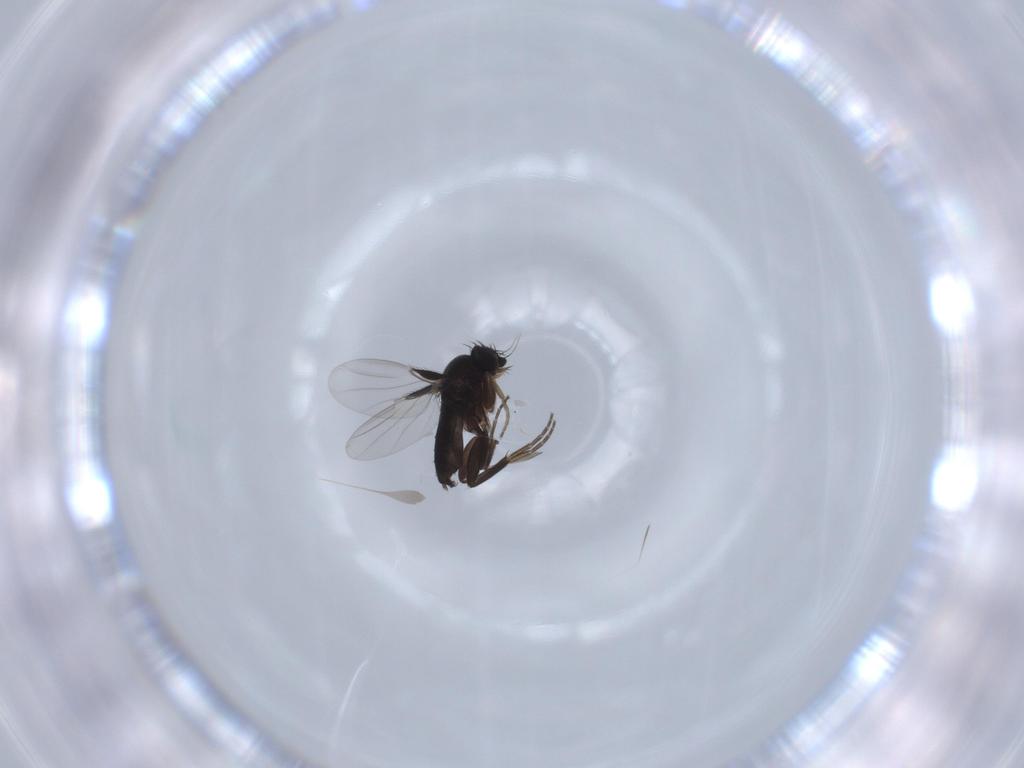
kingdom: Animalia
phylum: Arthropoda
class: Insecta
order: Diptera
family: Phoridae
